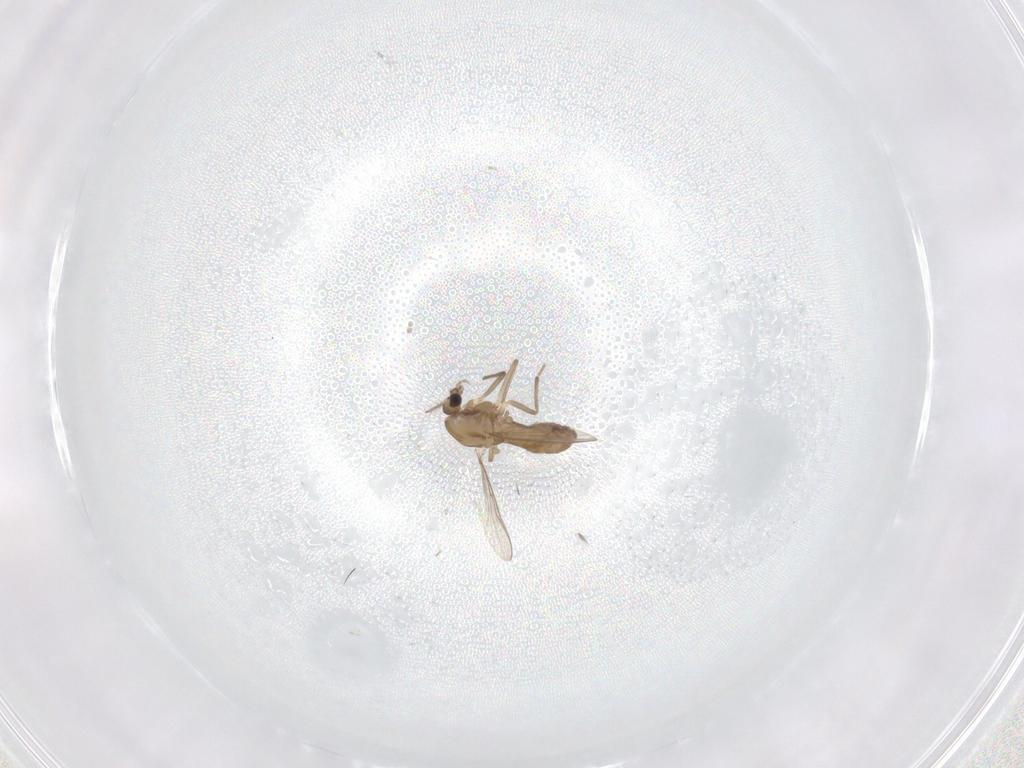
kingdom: Animalia
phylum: Arthropoda
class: Insecta
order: Diptera
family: Chironomidae
